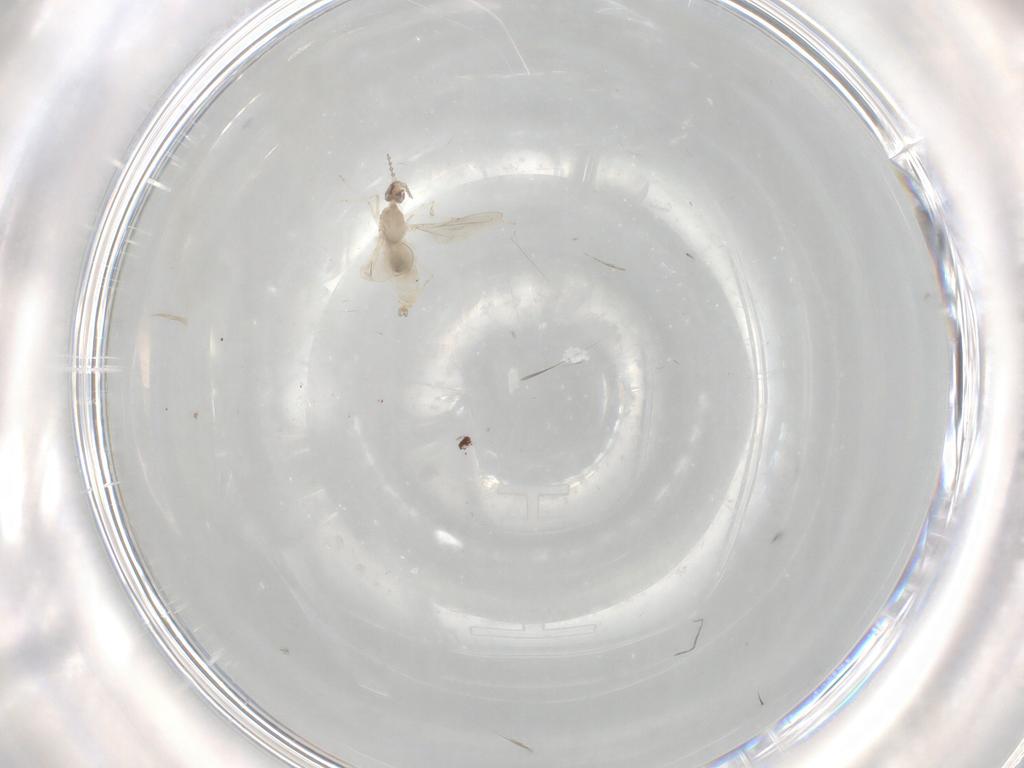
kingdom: Animalia
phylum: Arthropoda
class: Insecta
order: Diptera
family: Cecidomyiidae
